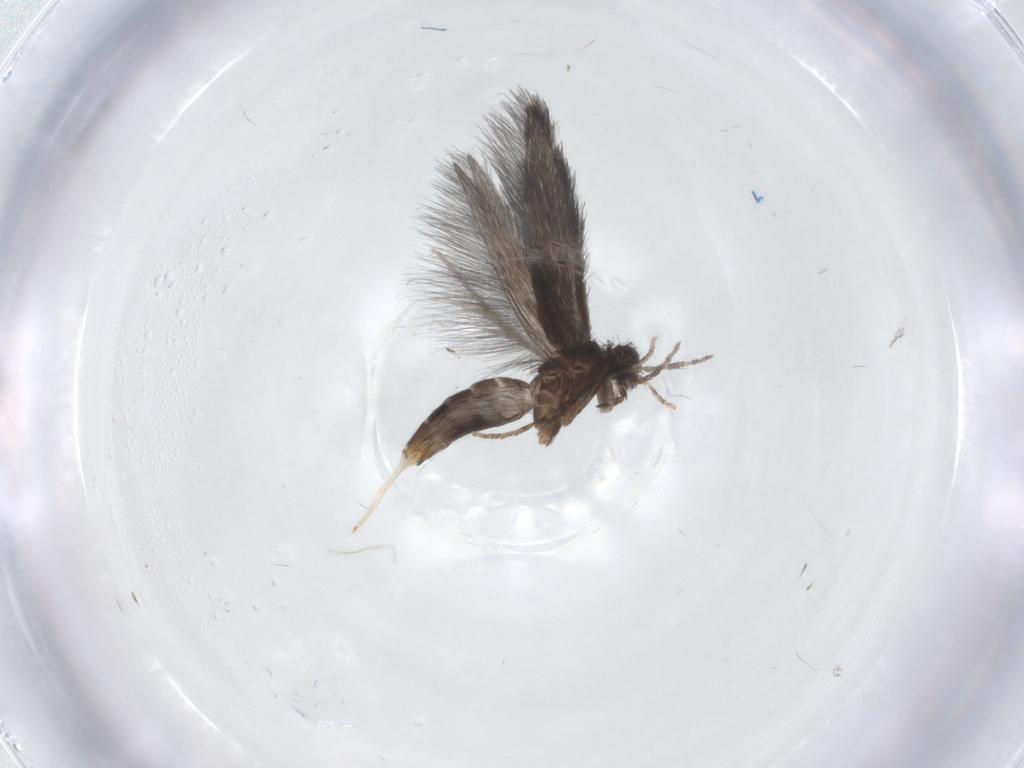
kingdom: Animalia
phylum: Arthropoda
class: Insecta
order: Trichoptera
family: Hydroptilidae
